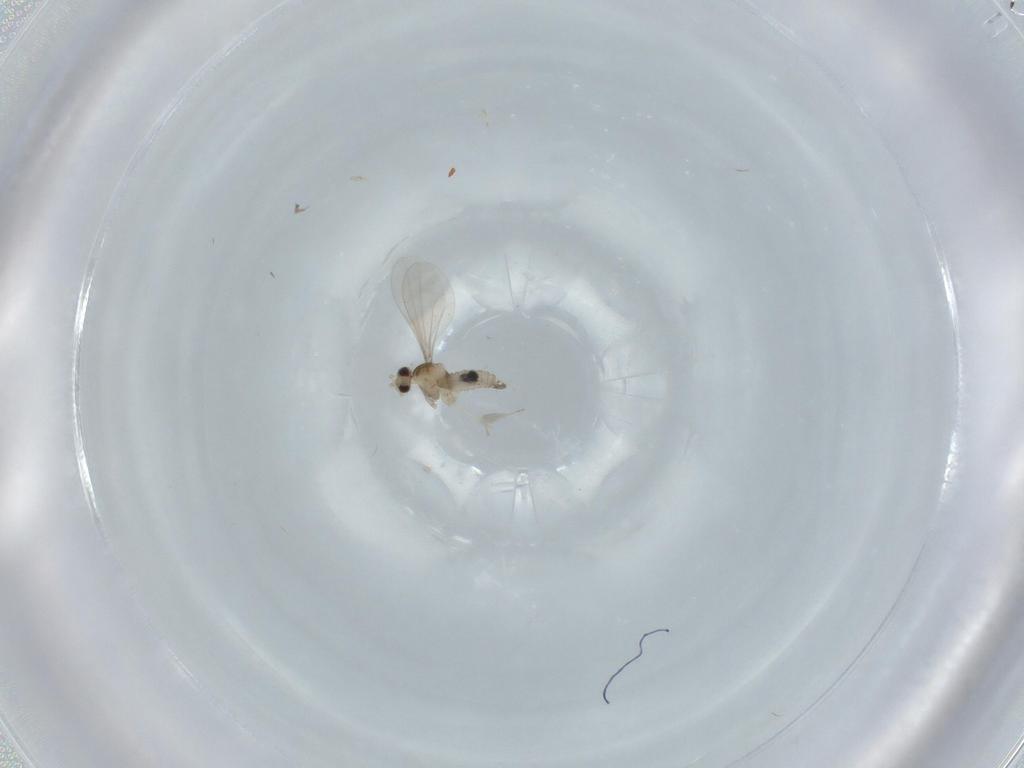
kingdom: Animalia
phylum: Arthropoda
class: Insecta
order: Diptera
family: Cecidomyiidae
